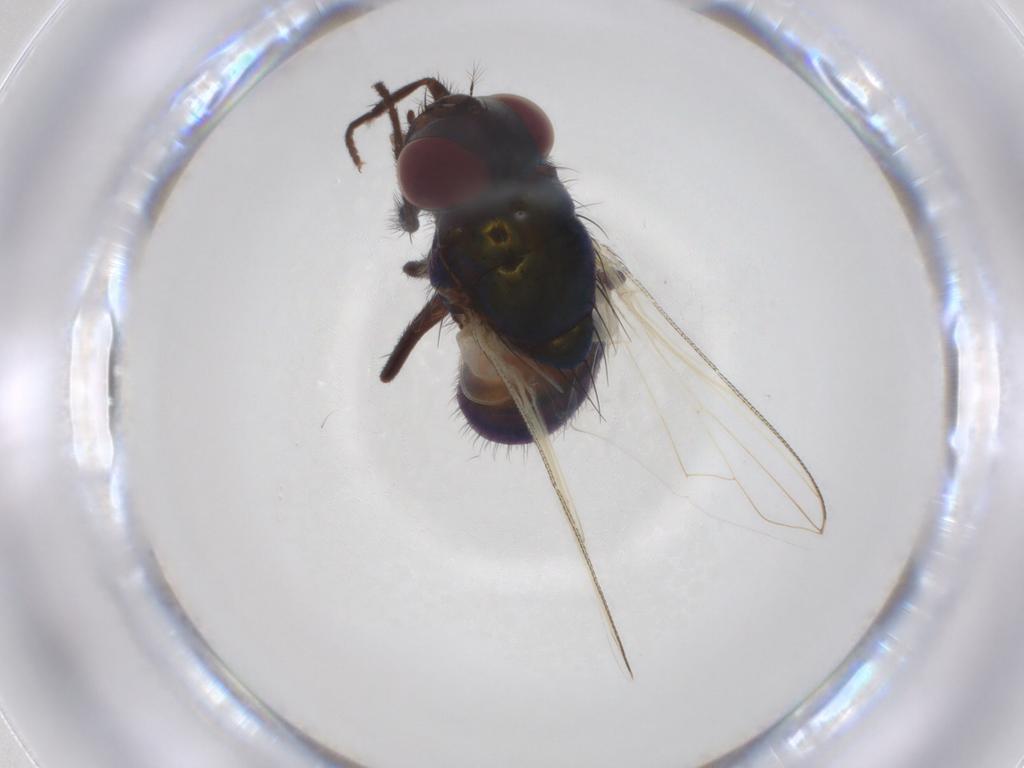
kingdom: Animalia
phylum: Arthropoda
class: Insecta
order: Diptera
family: Muscidae
